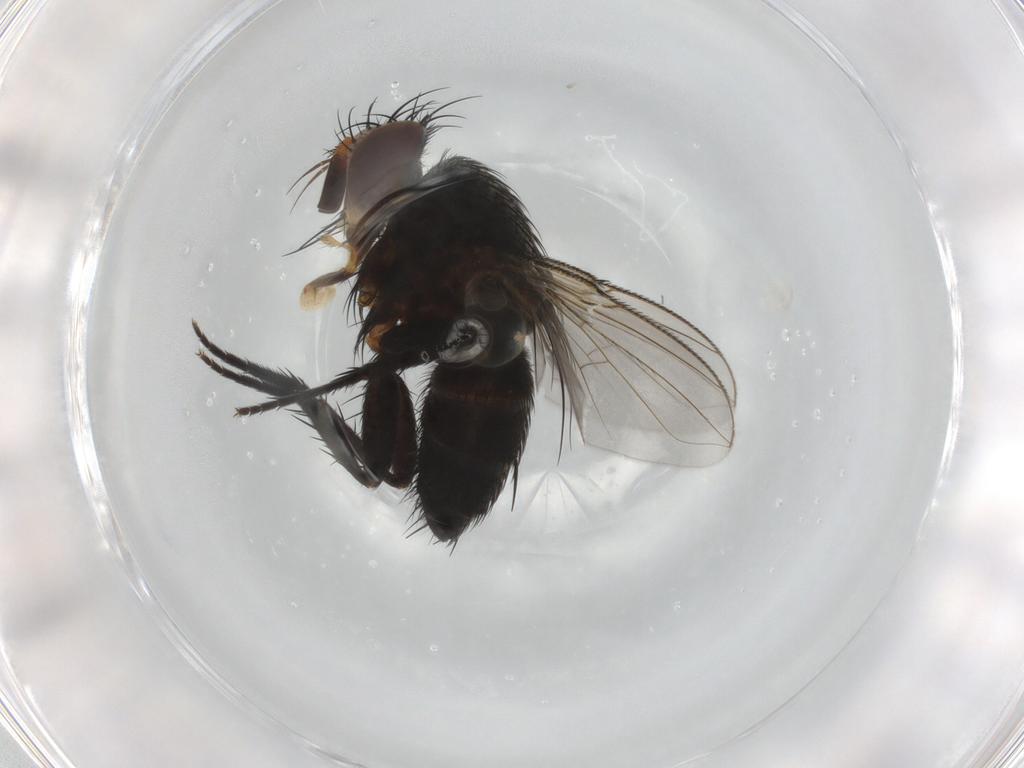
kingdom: Animalia
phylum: Arthropoda
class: Insecta
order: Diptera
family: Tachinidae
